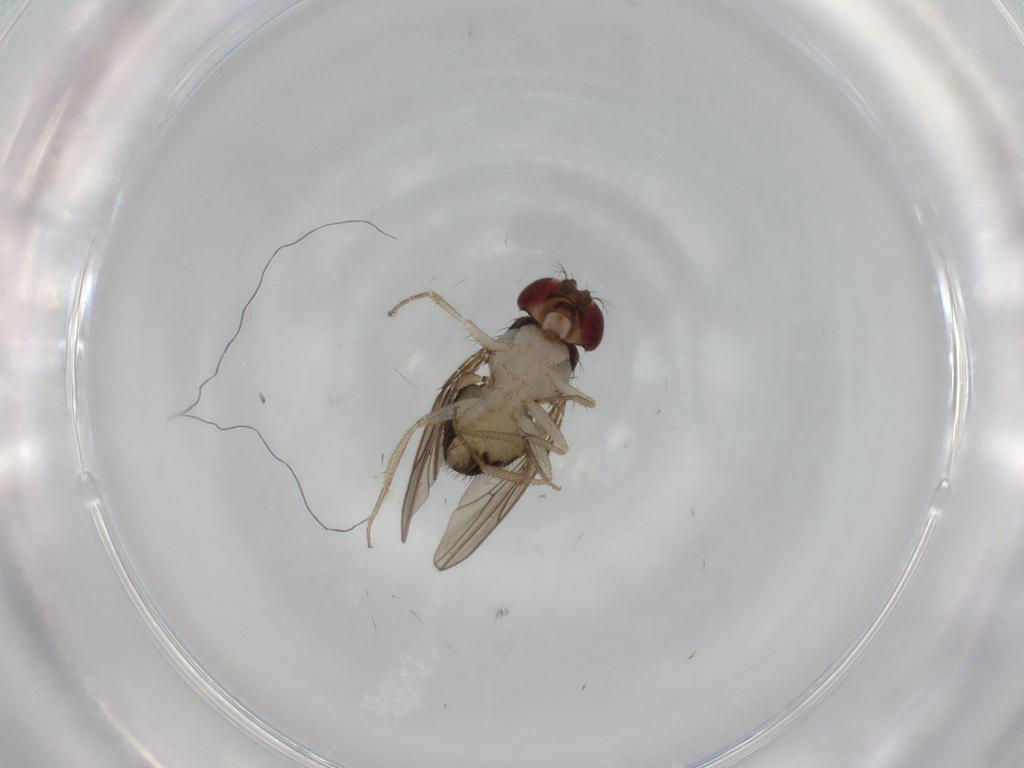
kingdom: Animalia
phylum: Arthropoda
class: Insecta
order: Diptera
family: Drosophilidae
